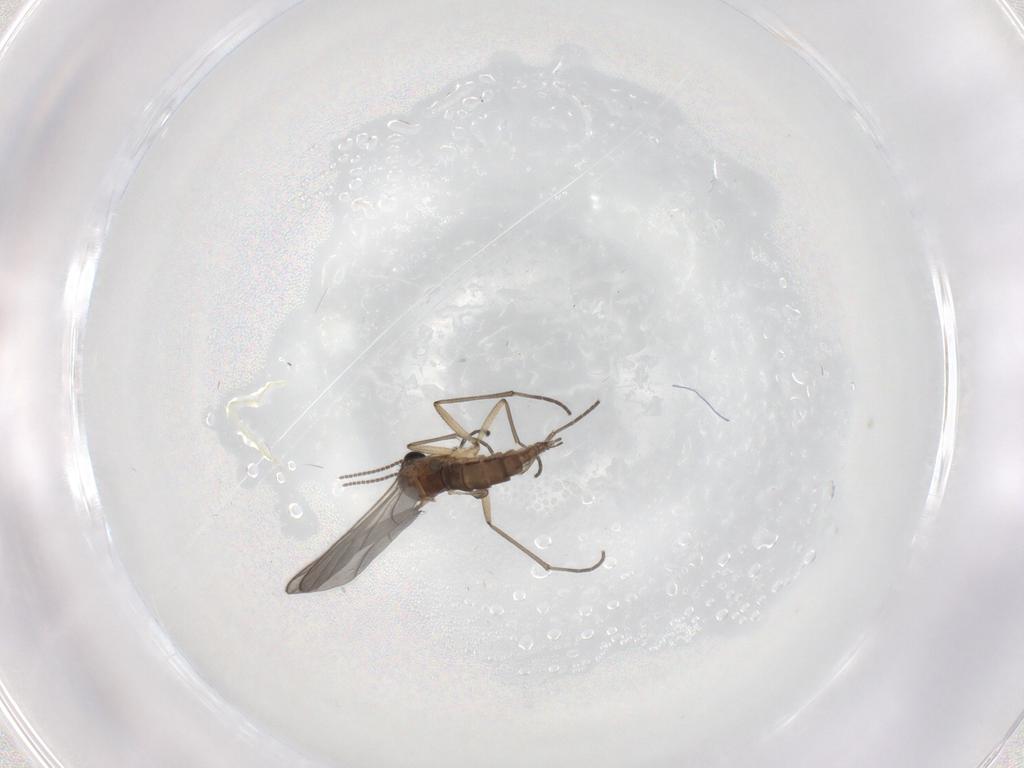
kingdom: Animalia
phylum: Arthropoda
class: Insecta
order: Diptera
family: Sciaridae
